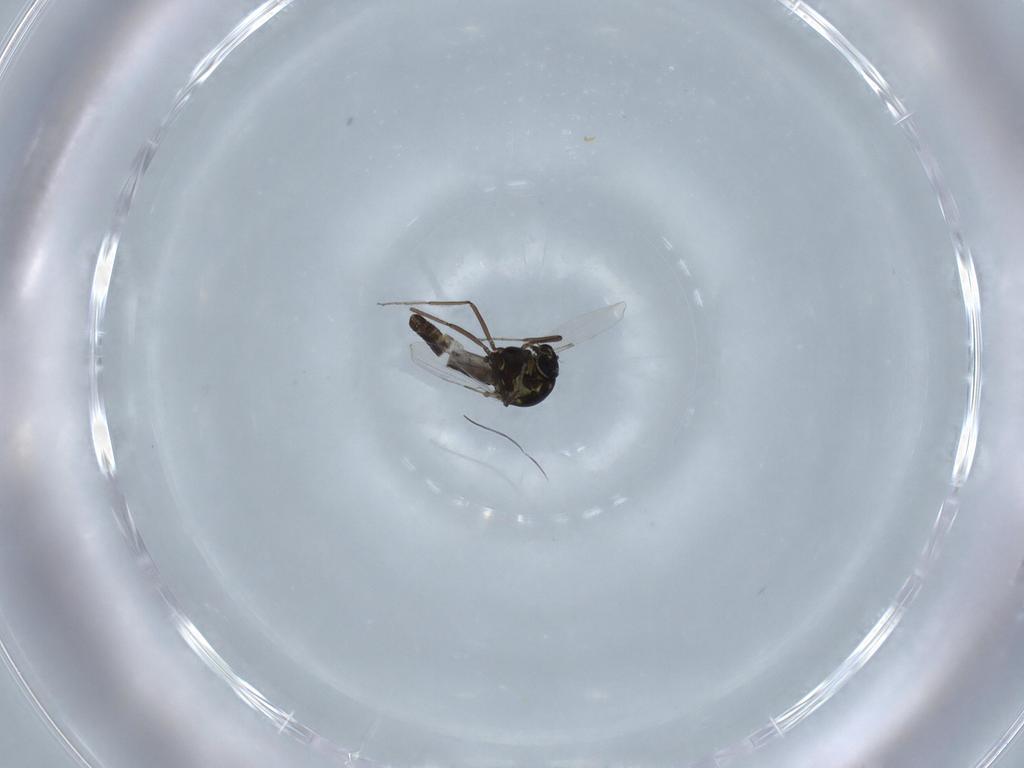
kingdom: Animalia
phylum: Arthropoda
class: Insecta
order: Diptera
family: Ceratopogonidae
